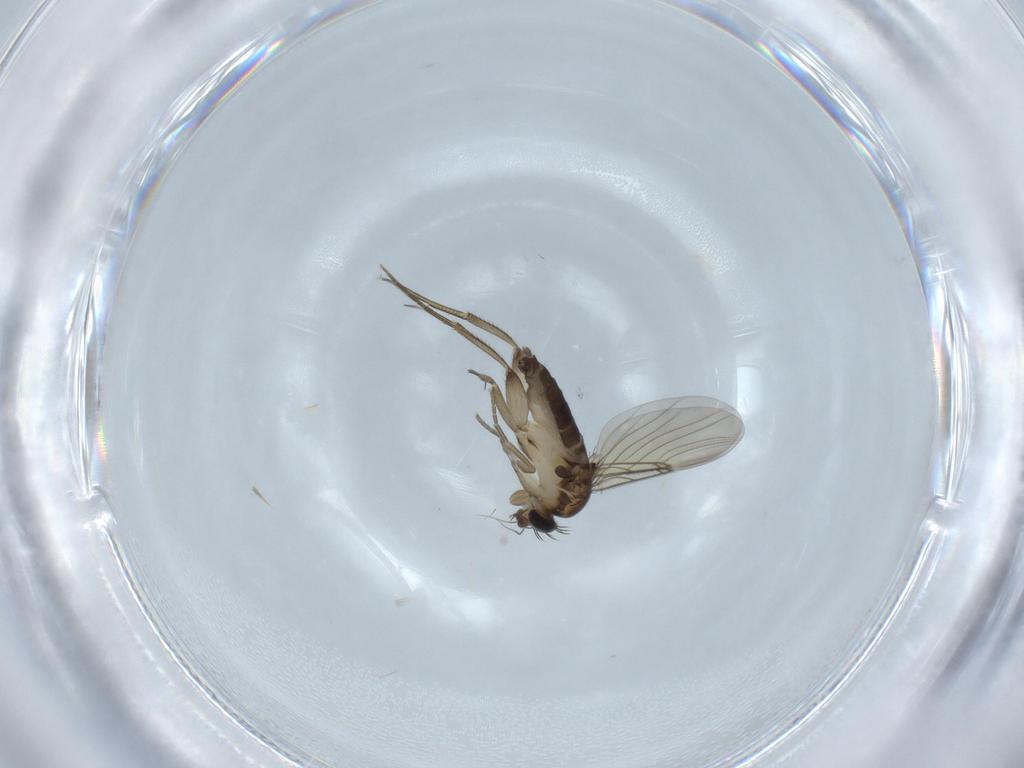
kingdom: Animalia
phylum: Arthropoda
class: Insecta
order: Diptera
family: Phoridae
